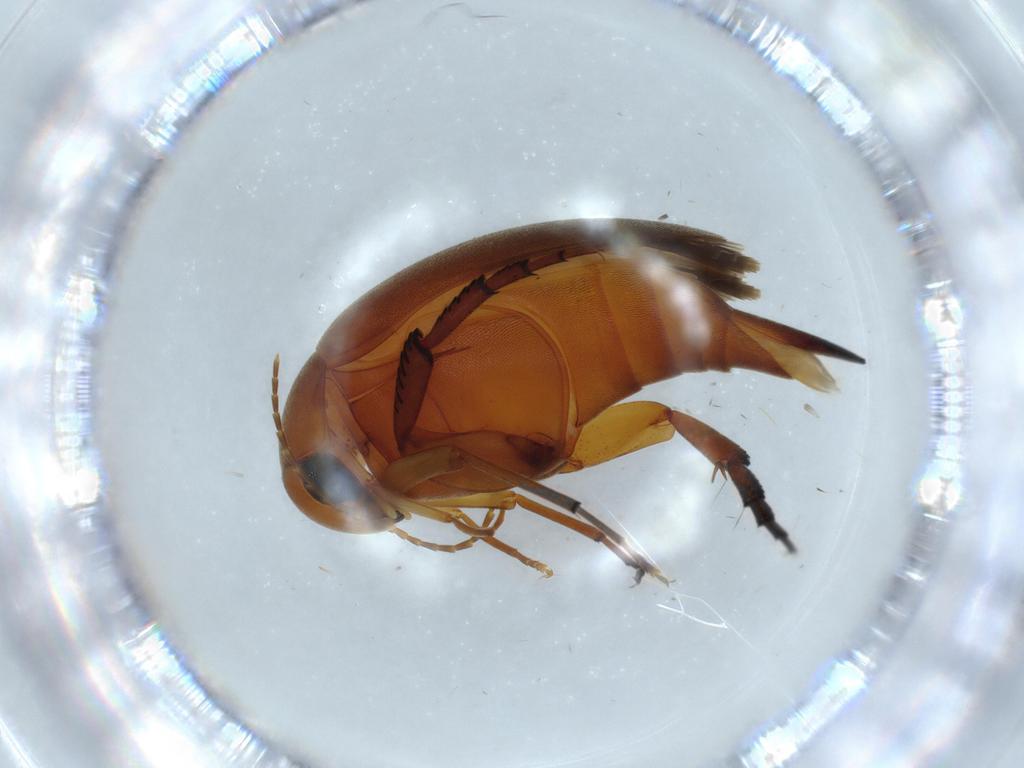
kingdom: Animalia
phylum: Arthropoda
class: Insecta
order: Coleoptera
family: Mordellidae
